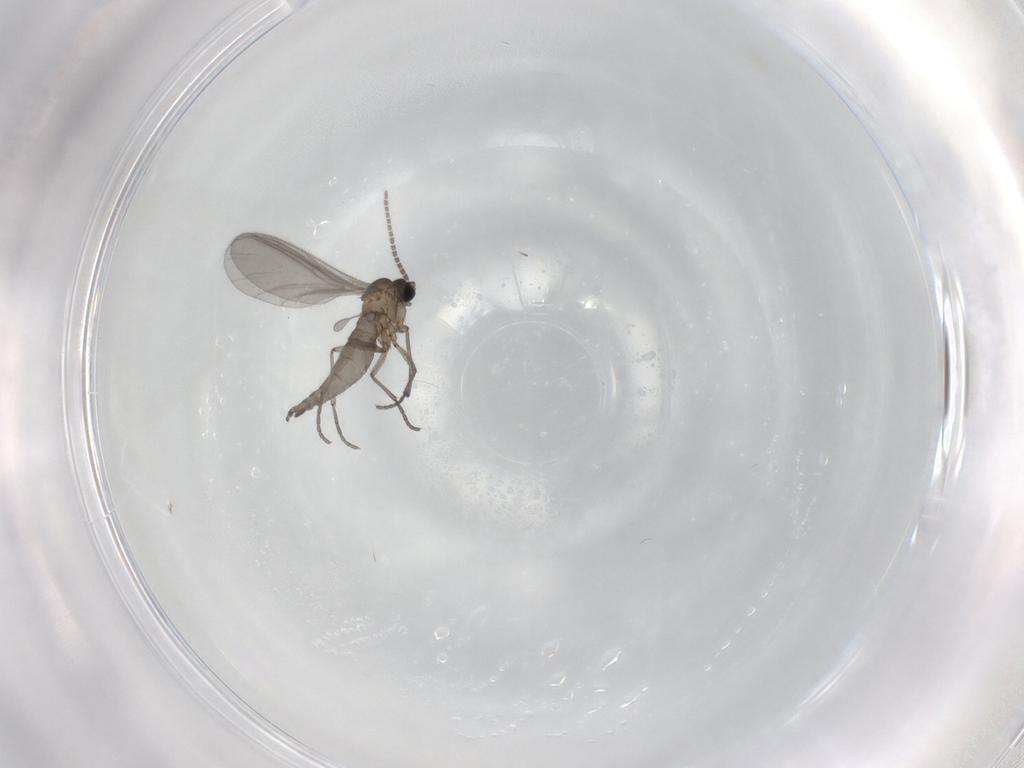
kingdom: Animalia
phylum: Arthropoda
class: Insecta
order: Diptera
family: Sciaridae
